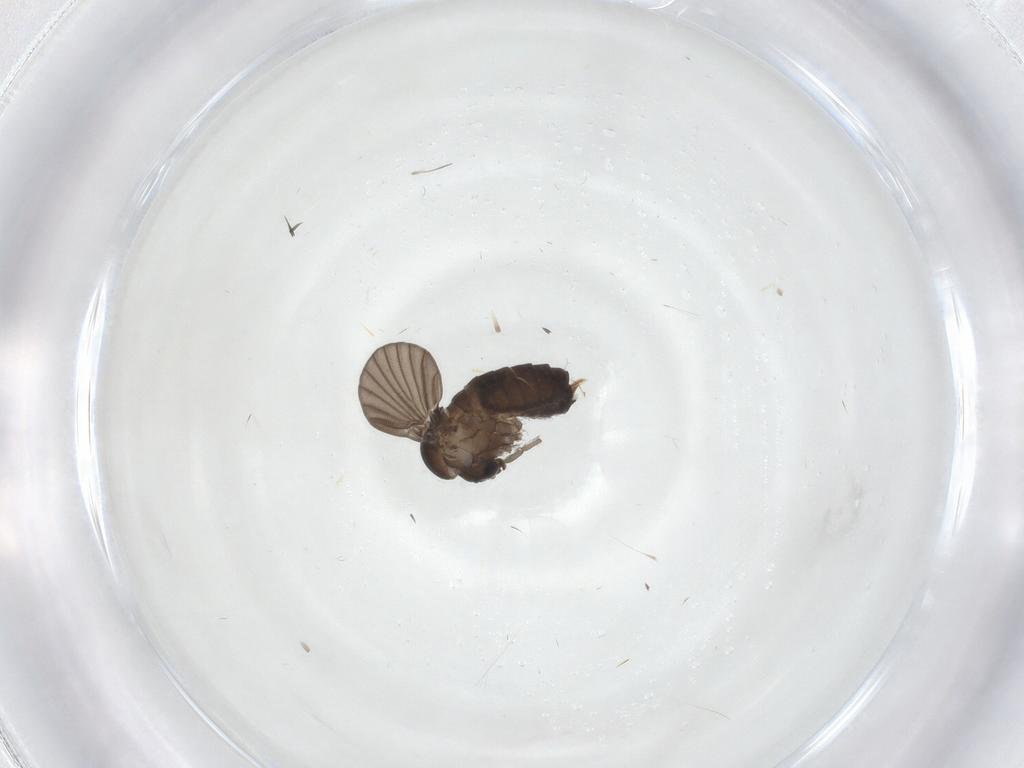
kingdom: Animalia
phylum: Arthropoda
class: Insecta
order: Diptera
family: Psychodidae
